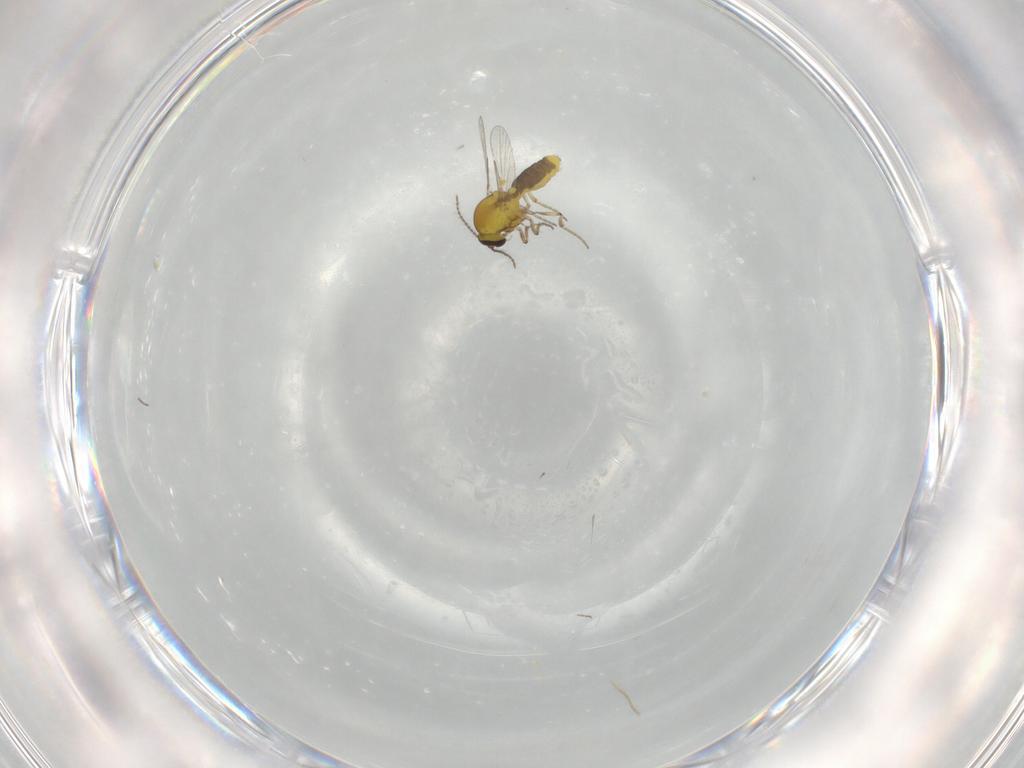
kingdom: Animalia
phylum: Arthropoda
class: Insecta
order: Diptera
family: Ceratopogonidae
